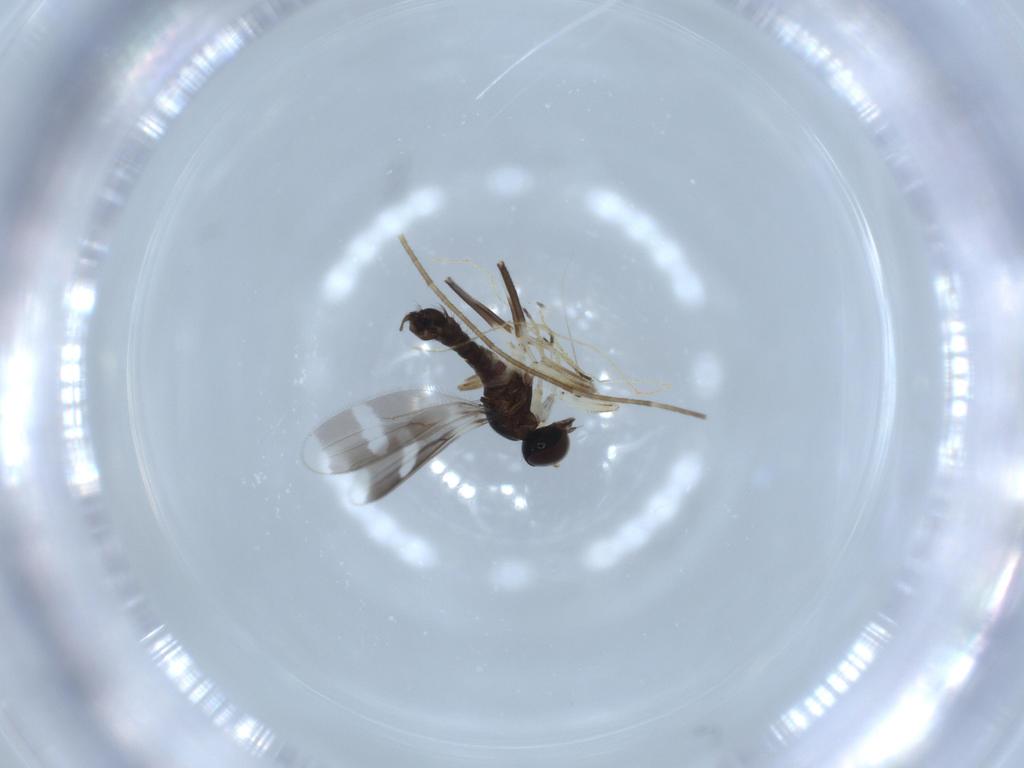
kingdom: Animalia
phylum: Arthropoda
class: Insecta
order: Diptera
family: Hybotidae
